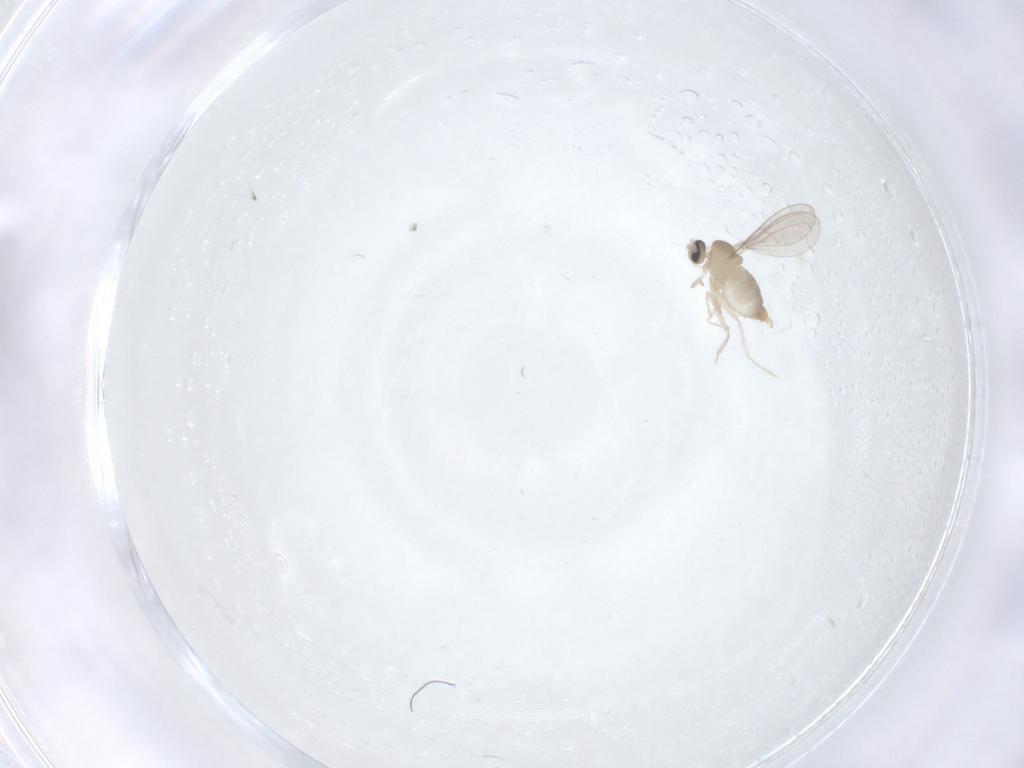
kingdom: Animalia
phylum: Arthropoda
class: Insecta
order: Diptera
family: Cecidomyiidae
